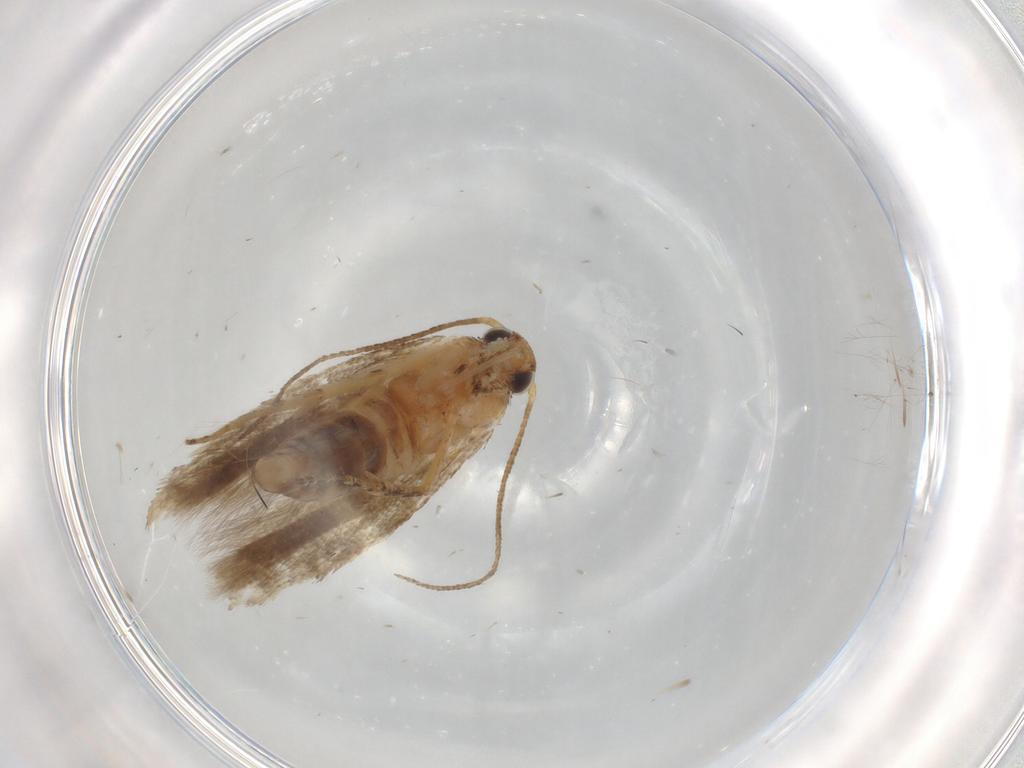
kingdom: Animalia
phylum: Arthropoda
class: Insecta
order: Lepidoptera
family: Gelechiidae
